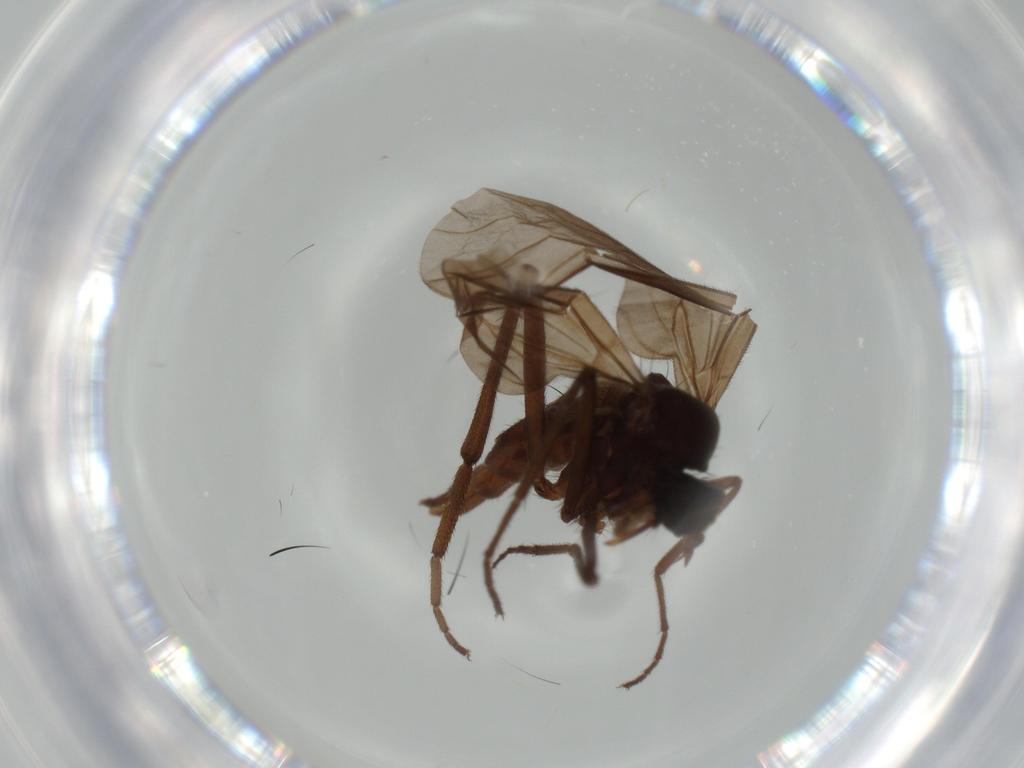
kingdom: Animalia
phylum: Arthropoda
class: Insecta
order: Diptera
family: Empididae
